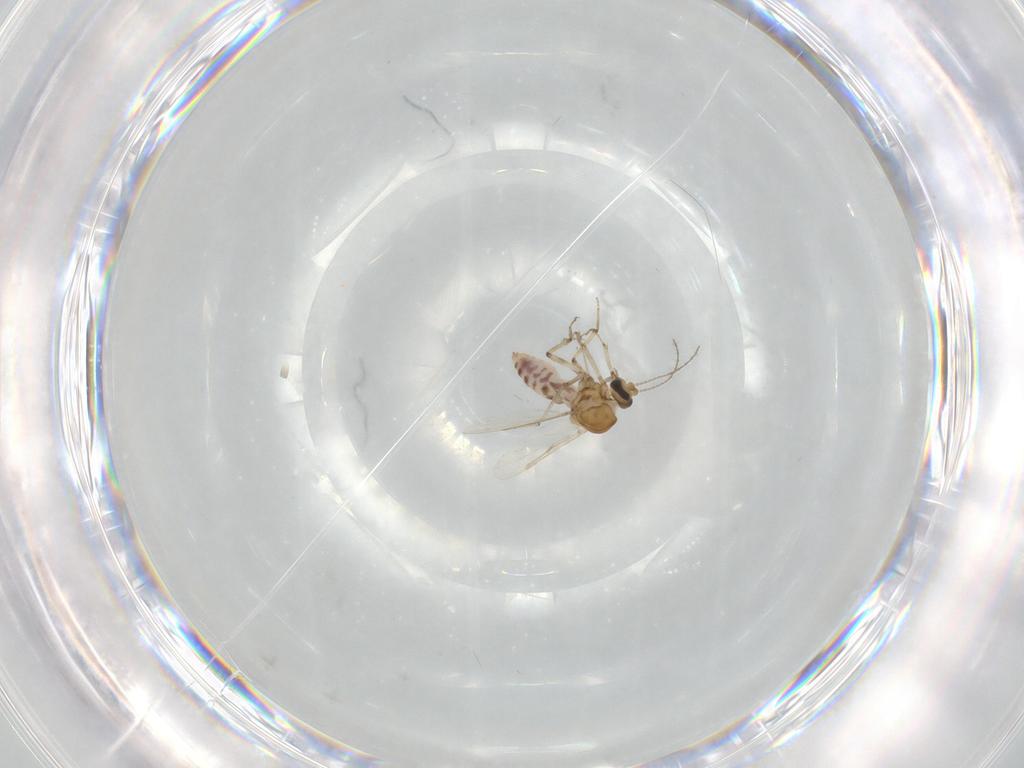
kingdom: Animalia
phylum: Arthropoda
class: Insecta
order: Diptera
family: Ceratopogonidae
